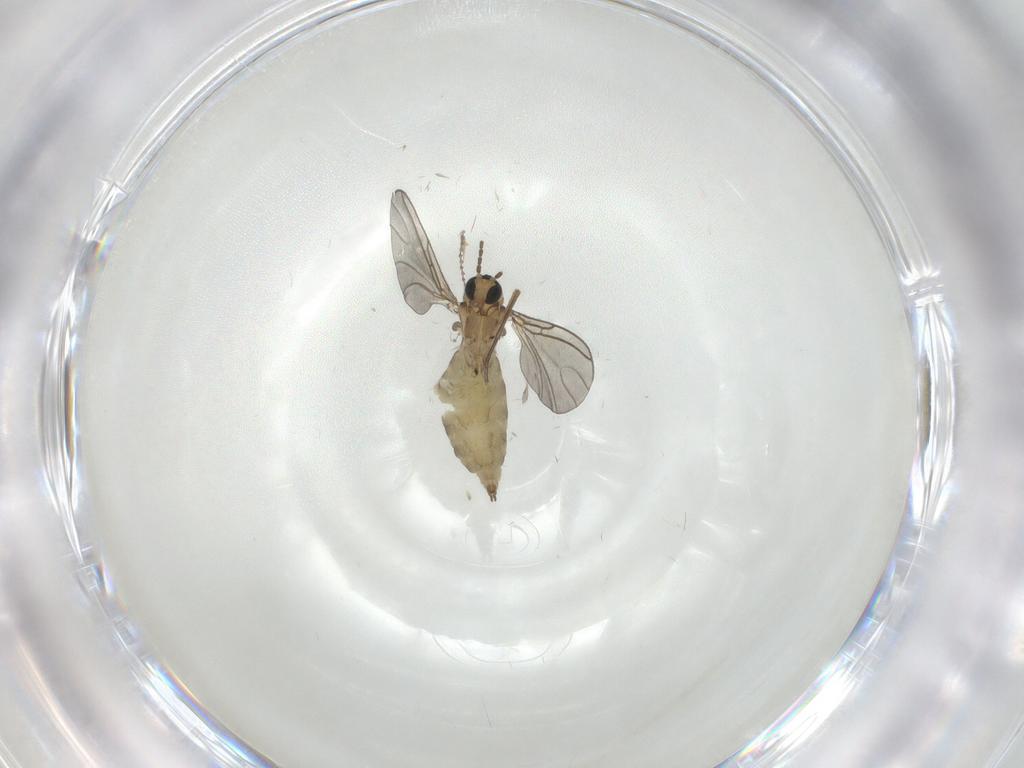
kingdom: Animalia
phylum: Arthropoda
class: Insecta
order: Diptera
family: Sciaridae
